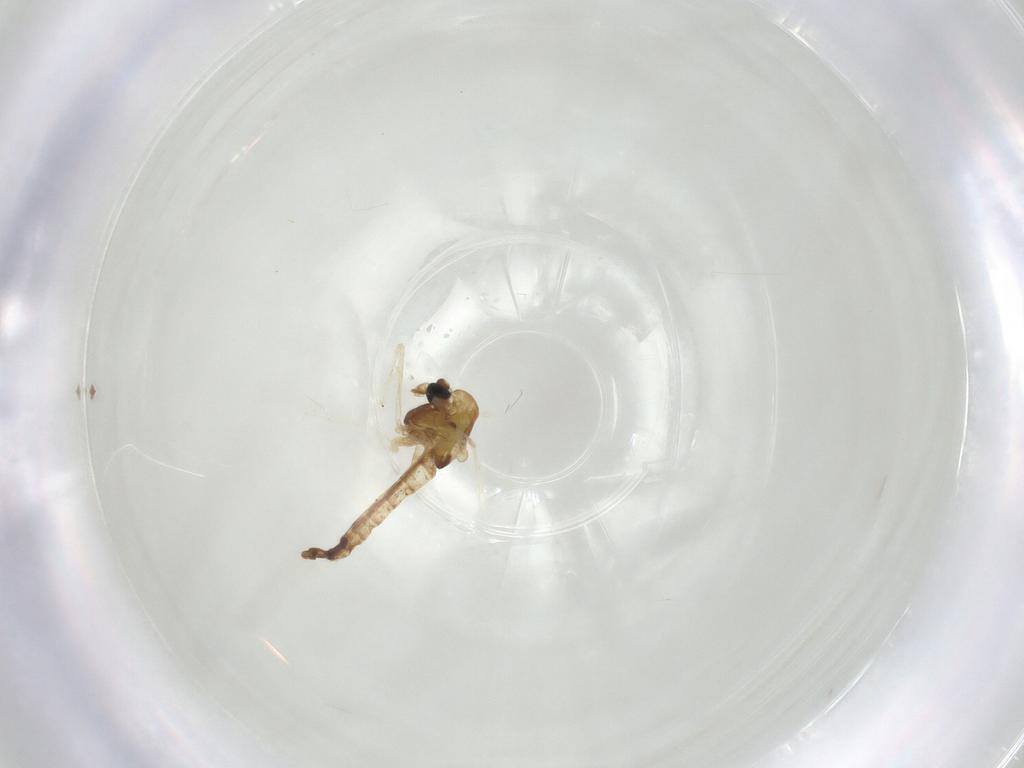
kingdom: Animalia
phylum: Arthropoda
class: Insecta
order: Diptera
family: Chironomidae
